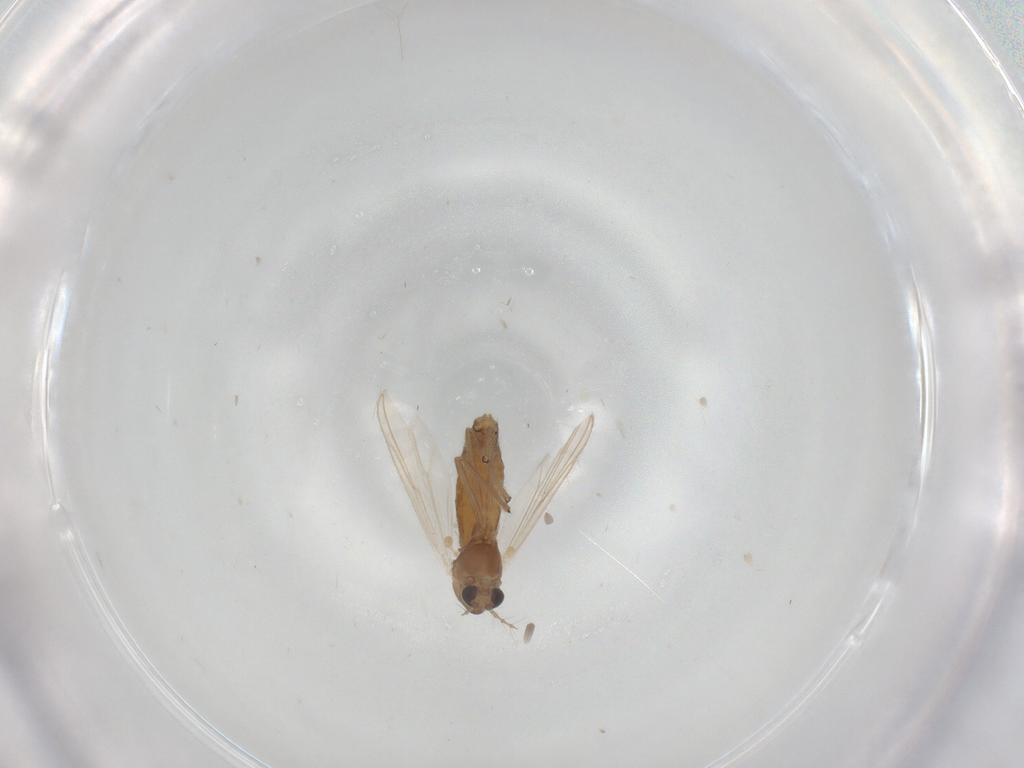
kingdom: Animalia
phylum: Arthropoda
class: Insecta
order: Diptera
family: Chironomidae
